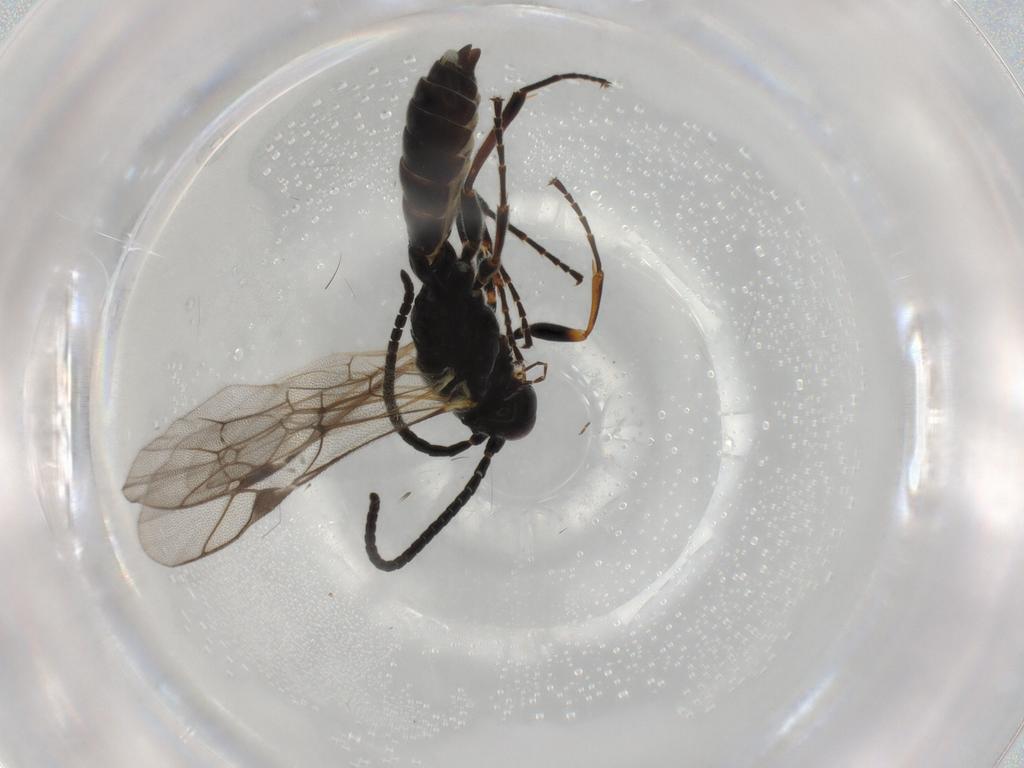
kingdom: Animalia
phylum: Arthropoda
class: Insecta
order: Hymenoptera
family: Ichneumonidae
